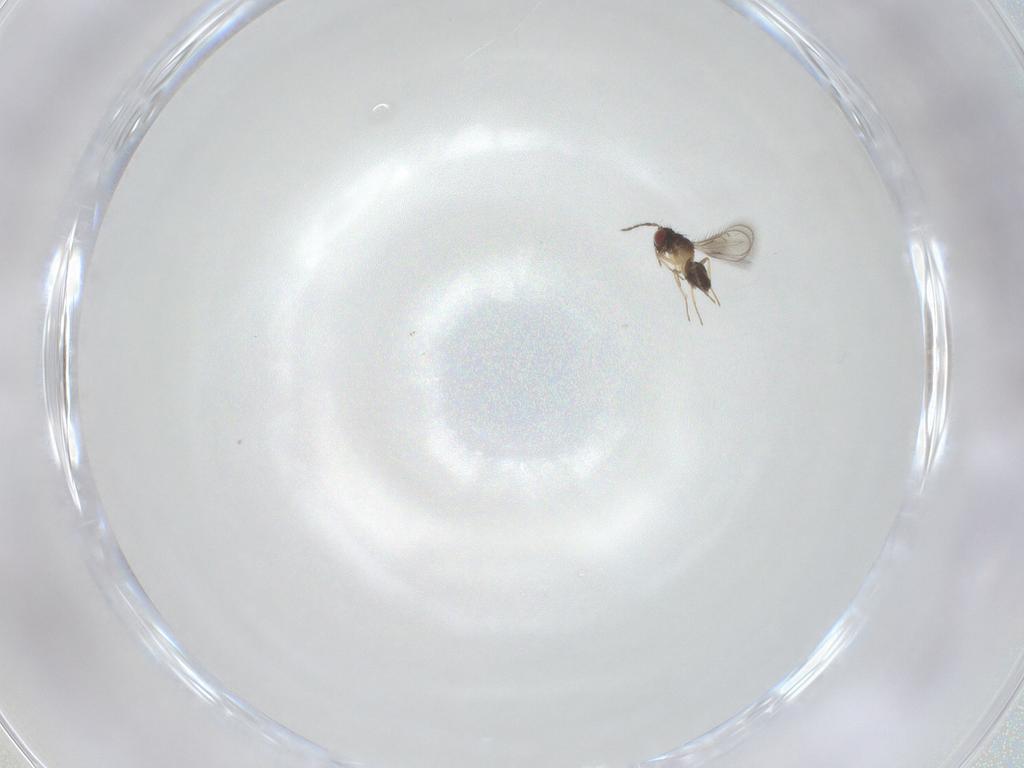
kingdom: Animalia
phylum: Arthropoda
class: Insecta
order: Hymenoptera
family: Eulophidae
